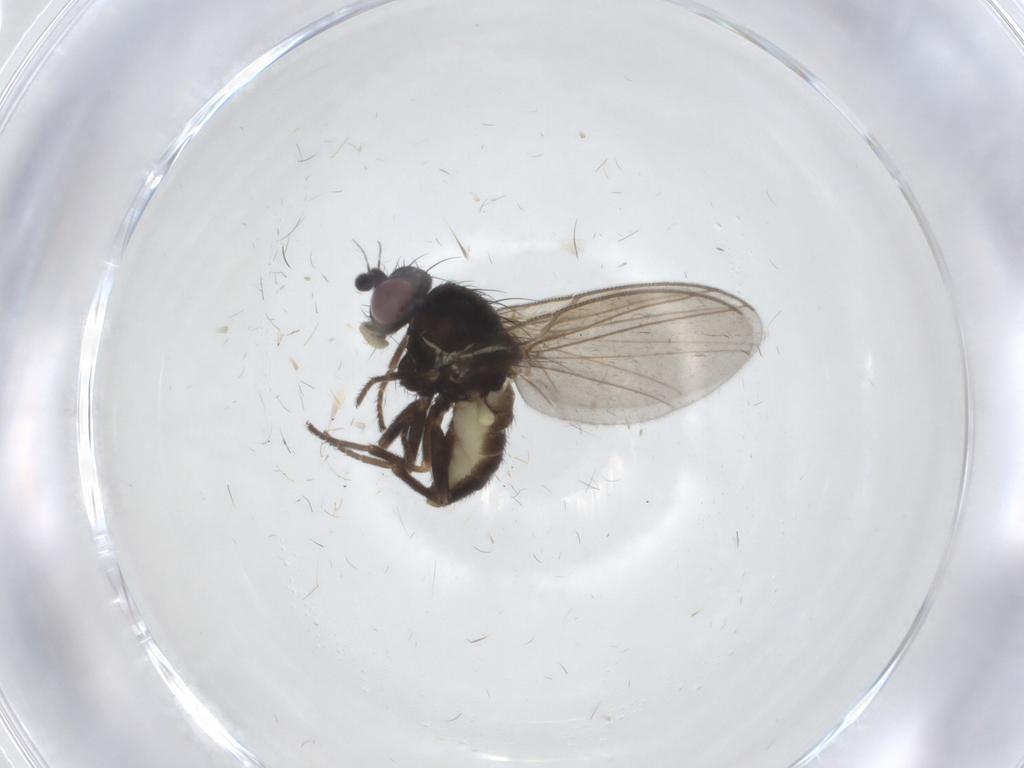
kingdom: Animalia
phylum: Arthropoda
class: Insecta
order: Diptera
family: Agromyzidae
